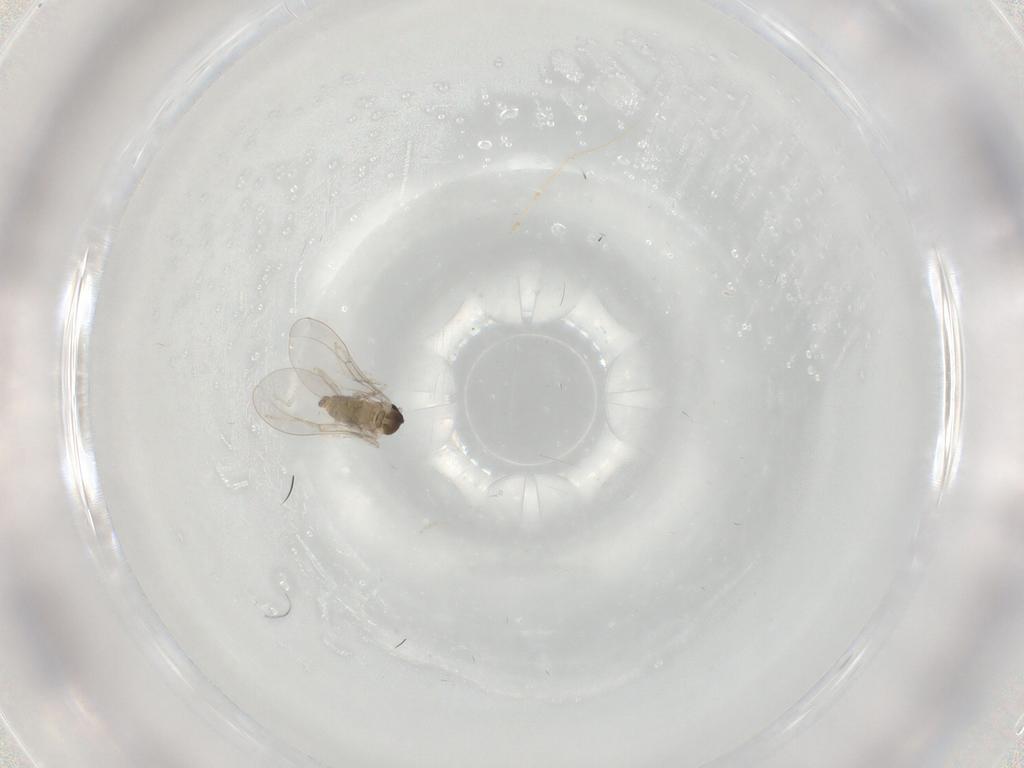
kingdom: Animalia
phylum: Arthropoda
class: Insecta
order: Diptera
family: Cecidomyiidae
